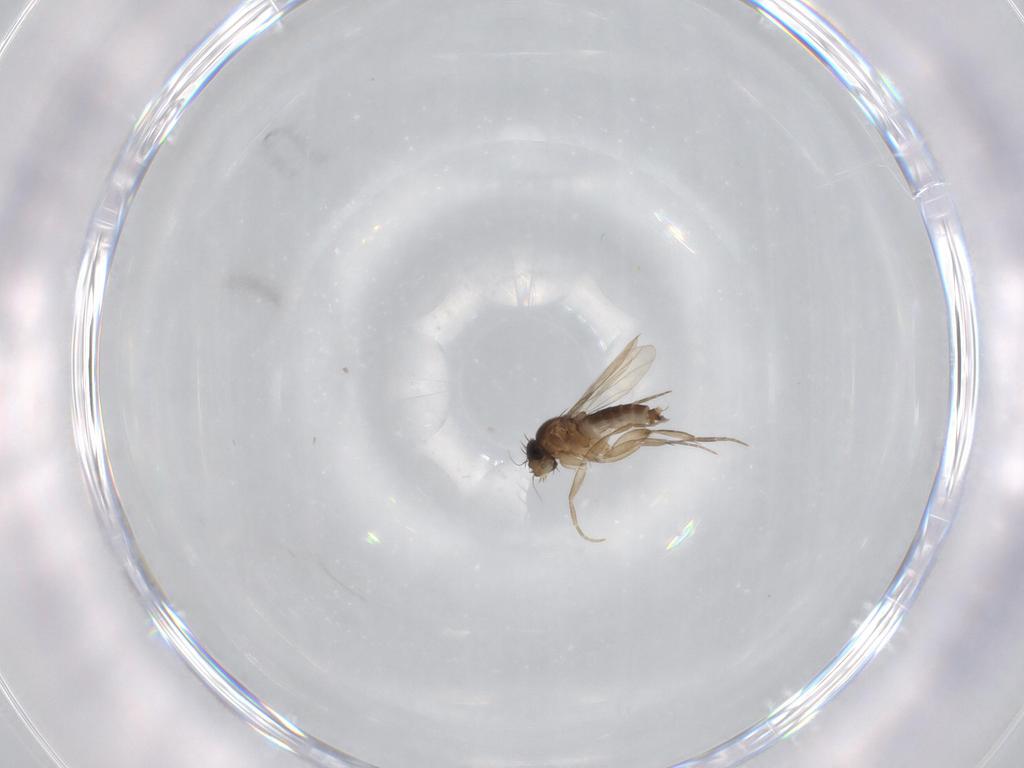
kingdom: Animalia
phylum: Arthropoda
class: Insecta
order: Diptera
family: Phoridae
